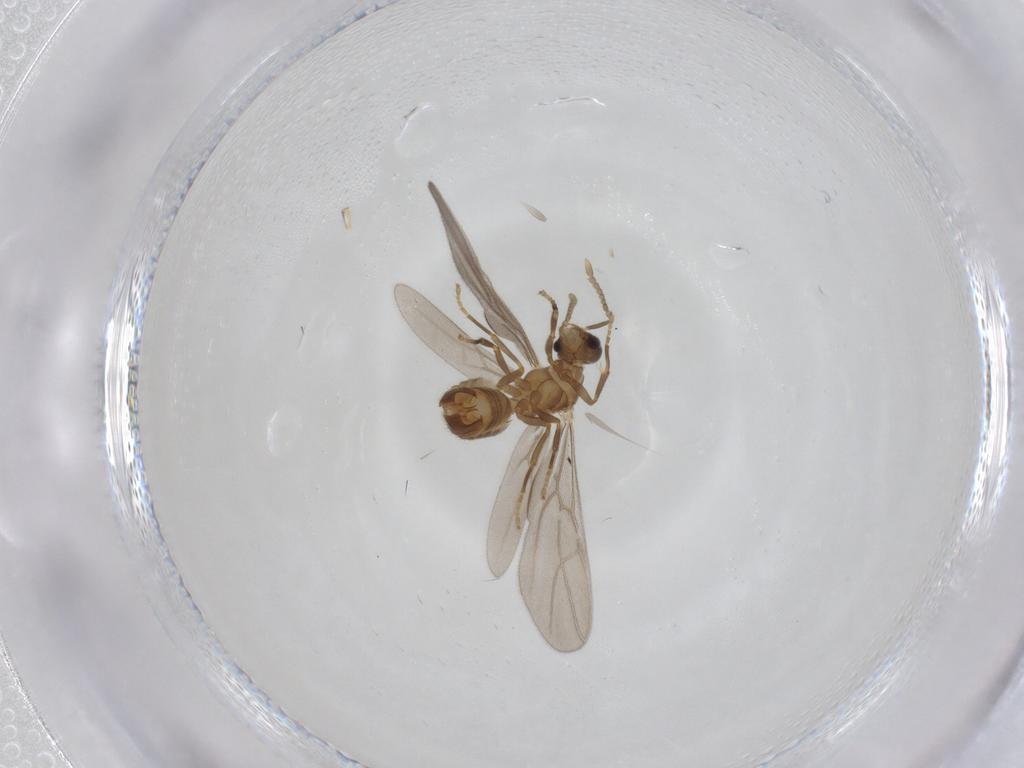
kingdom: Animalia
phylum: Arthropoda
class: Insecta
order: Hymenoptera
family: Formicidae
